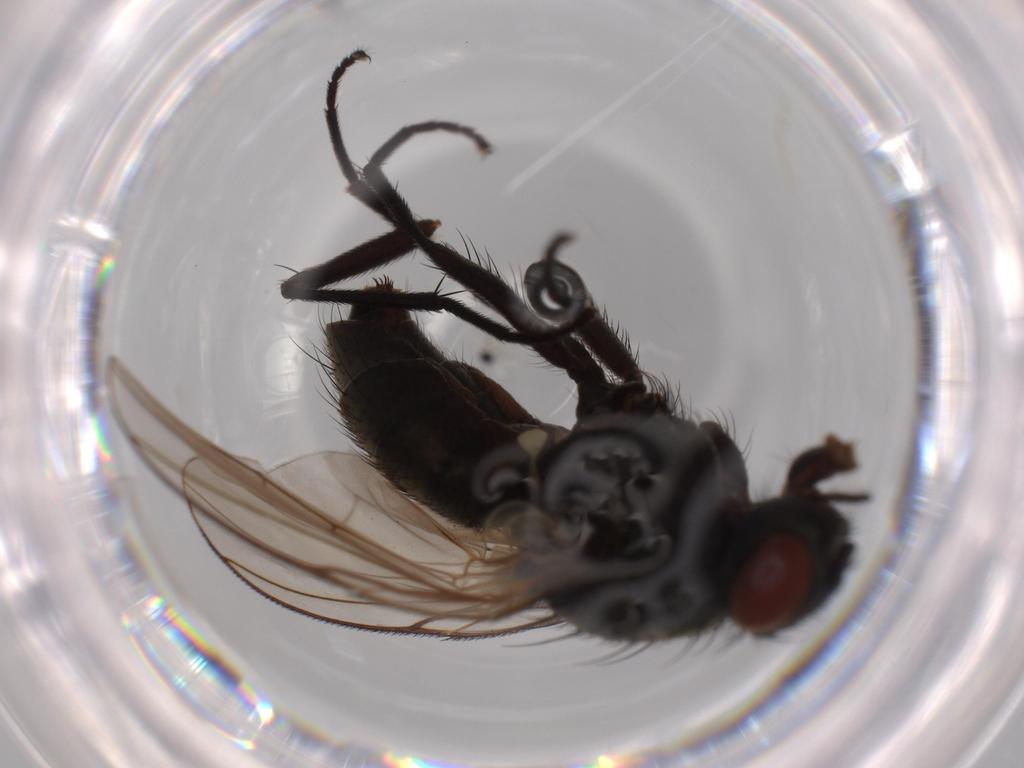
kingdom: Animalia
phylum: Arthropoda
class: Insecta
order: Diptera
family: Muscidae
